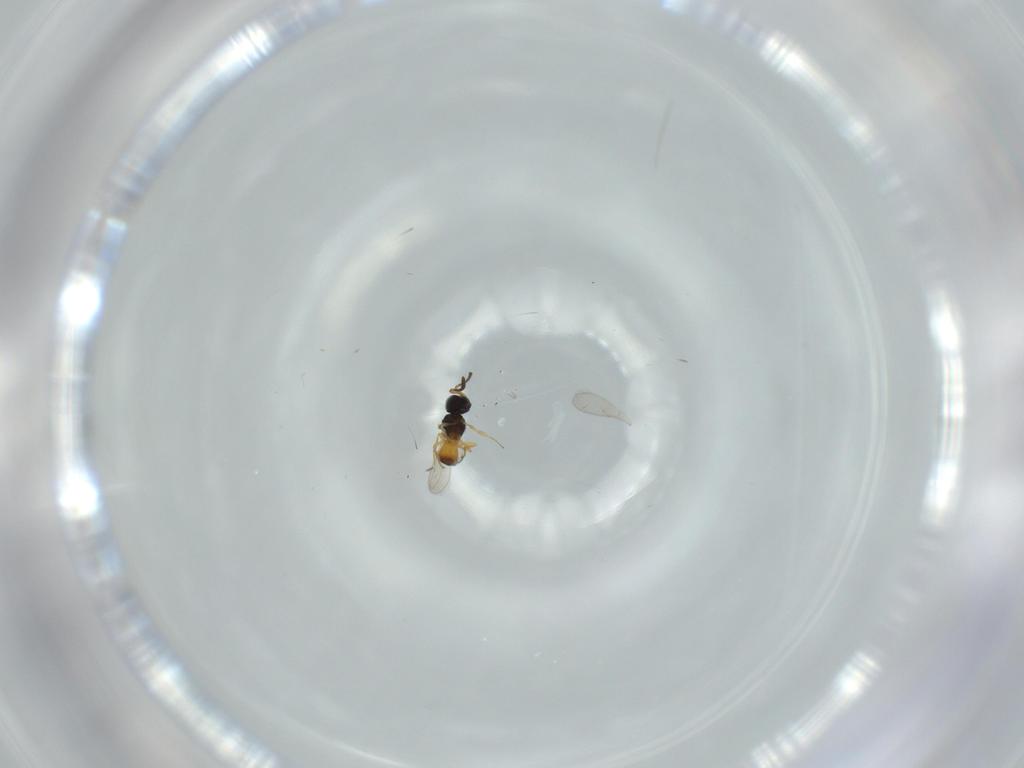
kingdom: Animalia
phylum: Arthropoda
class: Insecta
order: Hymenoptera
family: Scelionidae
